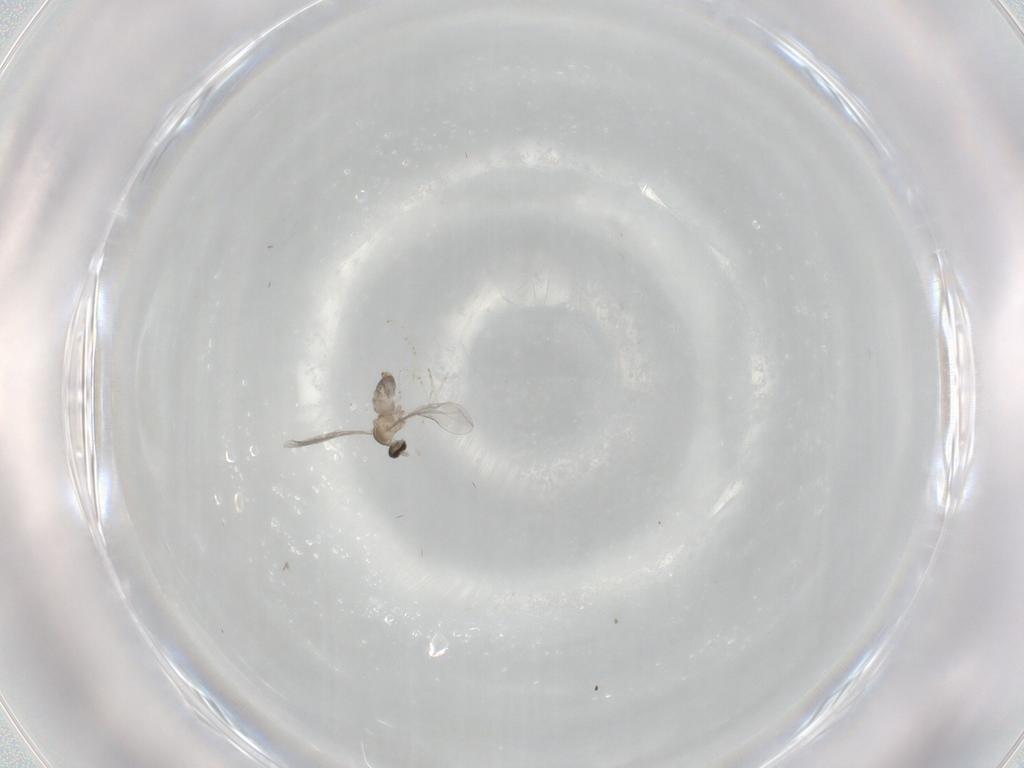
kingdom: Animalia
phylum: Arthropoda
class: Insecta
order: Diptera
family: Cecidomyiidae
